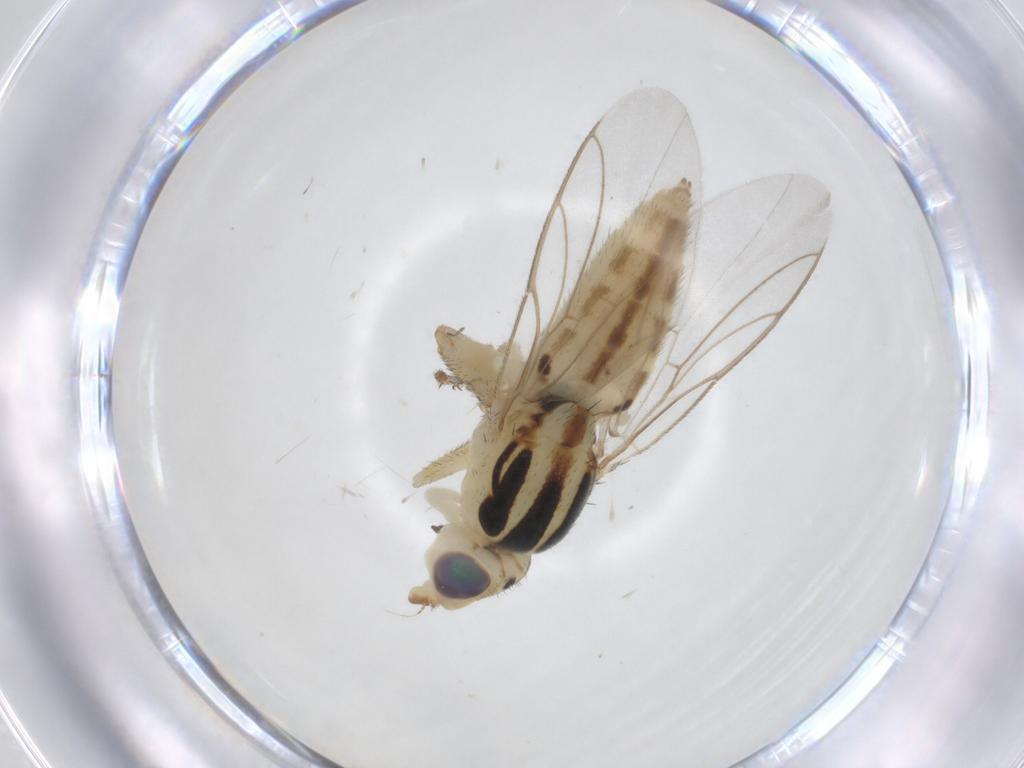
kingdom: Animalia
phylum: Arthropoda
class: Insecta
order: Diptera
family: Chloropidae
